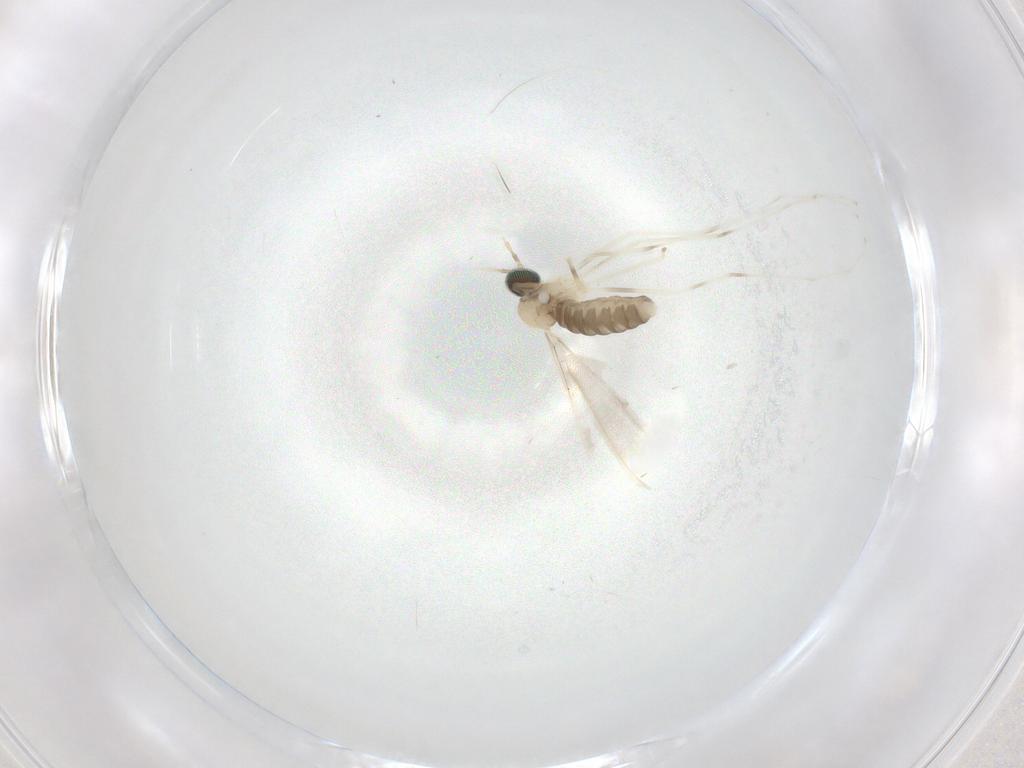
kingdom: Animalia
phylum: Arthropoda
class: Insecta
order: Diptera
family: Cecidomyiidae
